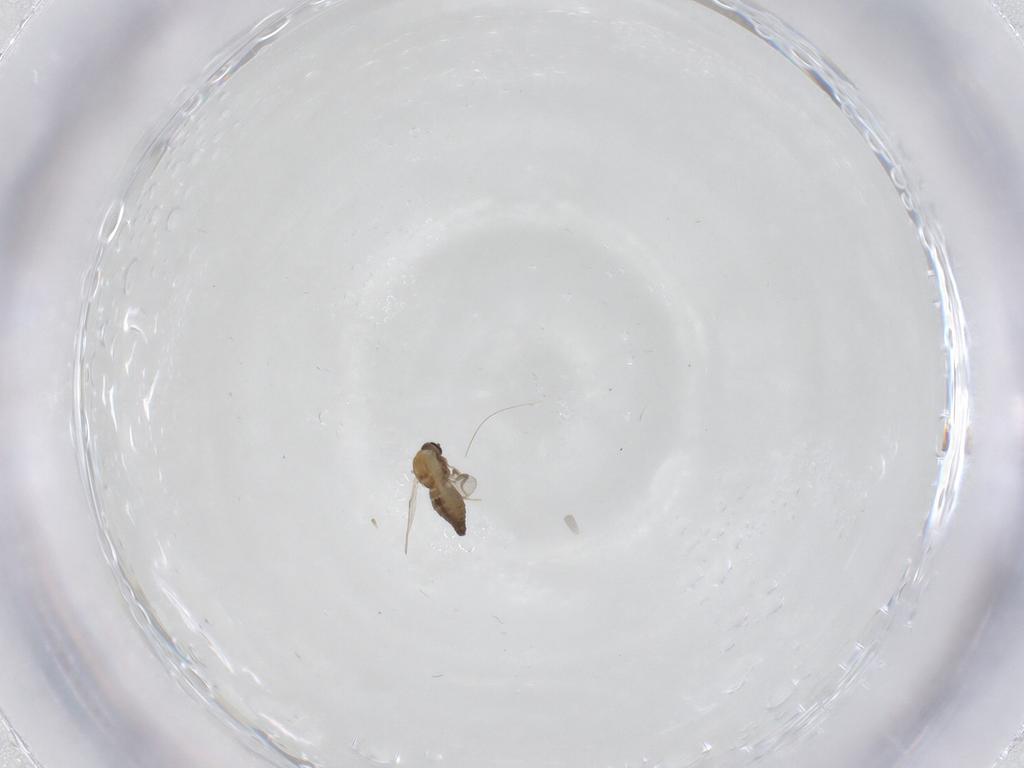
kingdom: Animalia
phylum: Arthropoda
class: Insecta
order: Diptera
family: Ceratopogonidae
